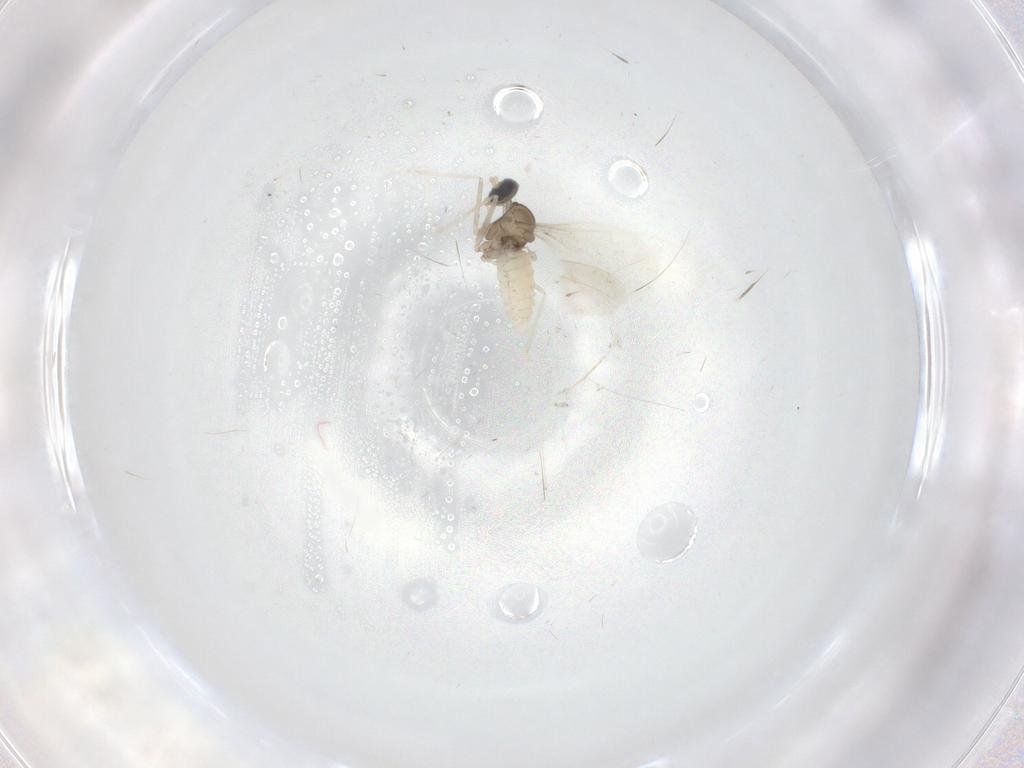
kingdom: Animalia
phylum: Arthropoda
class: Insecta
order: Diptera
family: Cecidomyiidae
